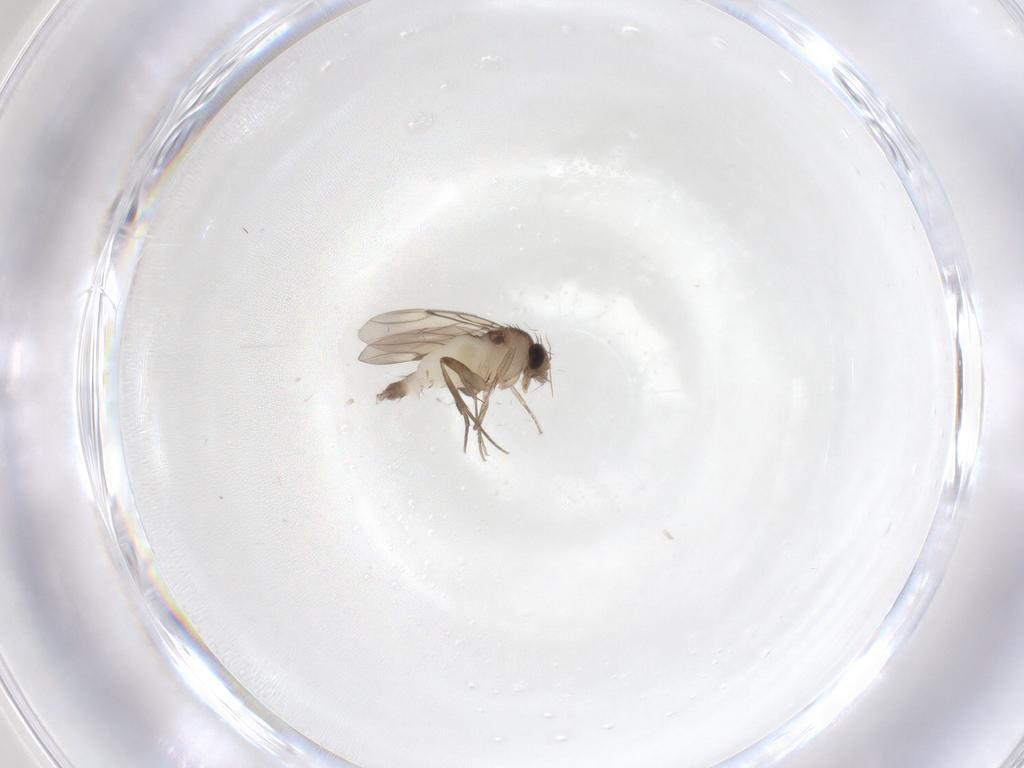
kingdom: Animalia
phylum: Arthropoda
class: Insecta
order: Diptera
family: Phoridae
